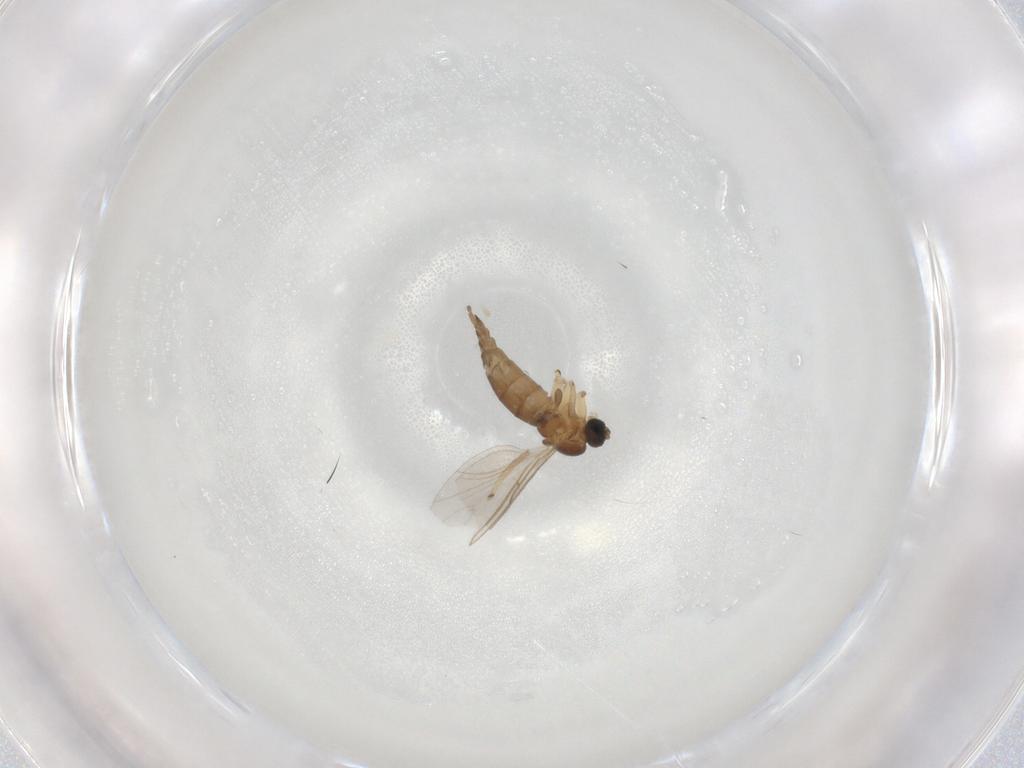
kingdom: Animalia
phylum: Arthropoda
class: Insecta
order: Diptera
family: Sciaridae
